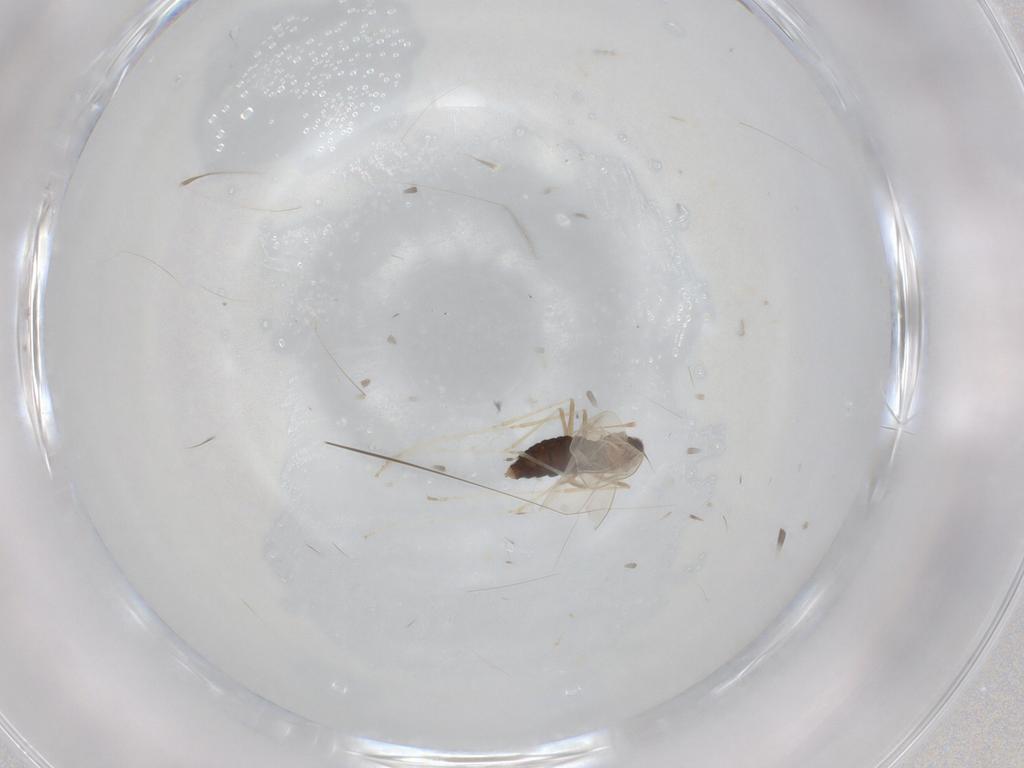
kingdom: Animalia
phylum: Arthropoda
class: Insecta
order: Diptera
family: Cecidomyiidae
